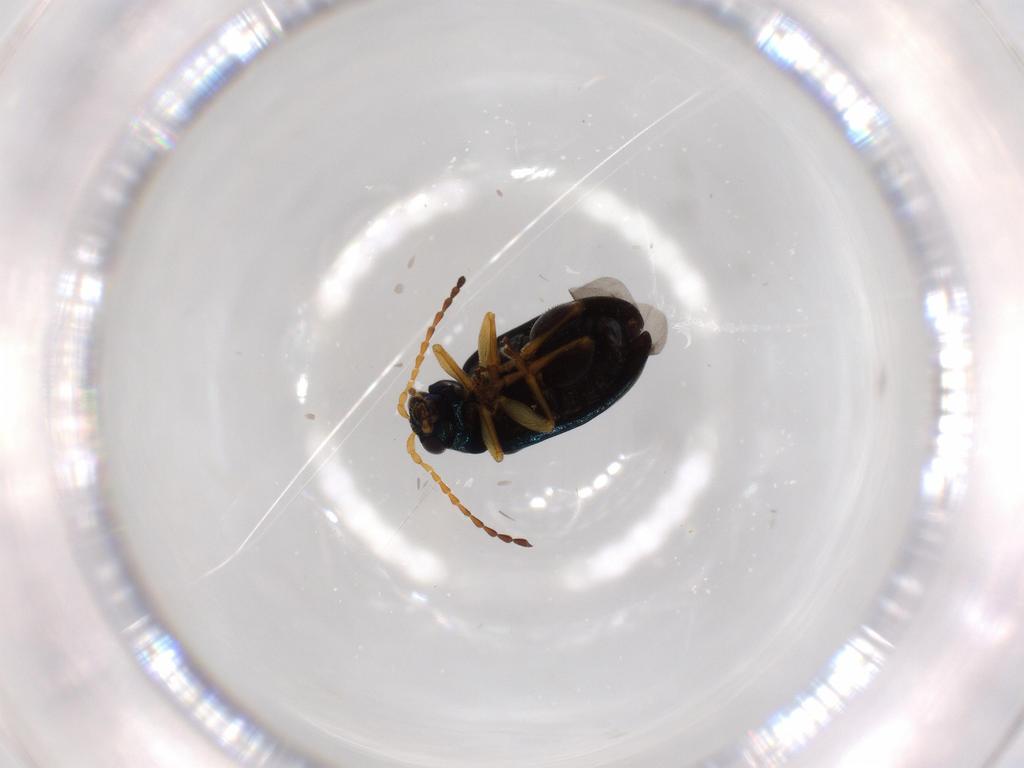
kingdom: Animalia
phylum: Arthropoda
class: Insecta
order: Coleoptera
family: Chrysomelidae
